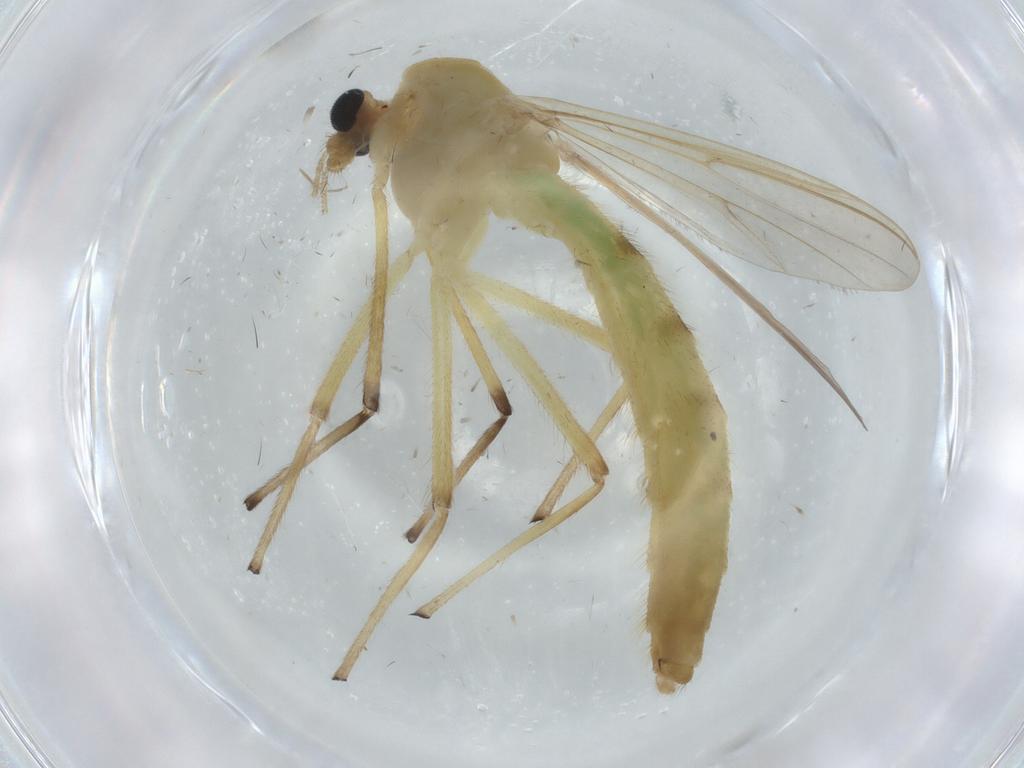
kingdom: Animalia
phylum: Arthropoda
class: Insecta
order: Diptera
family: Chironomidae
